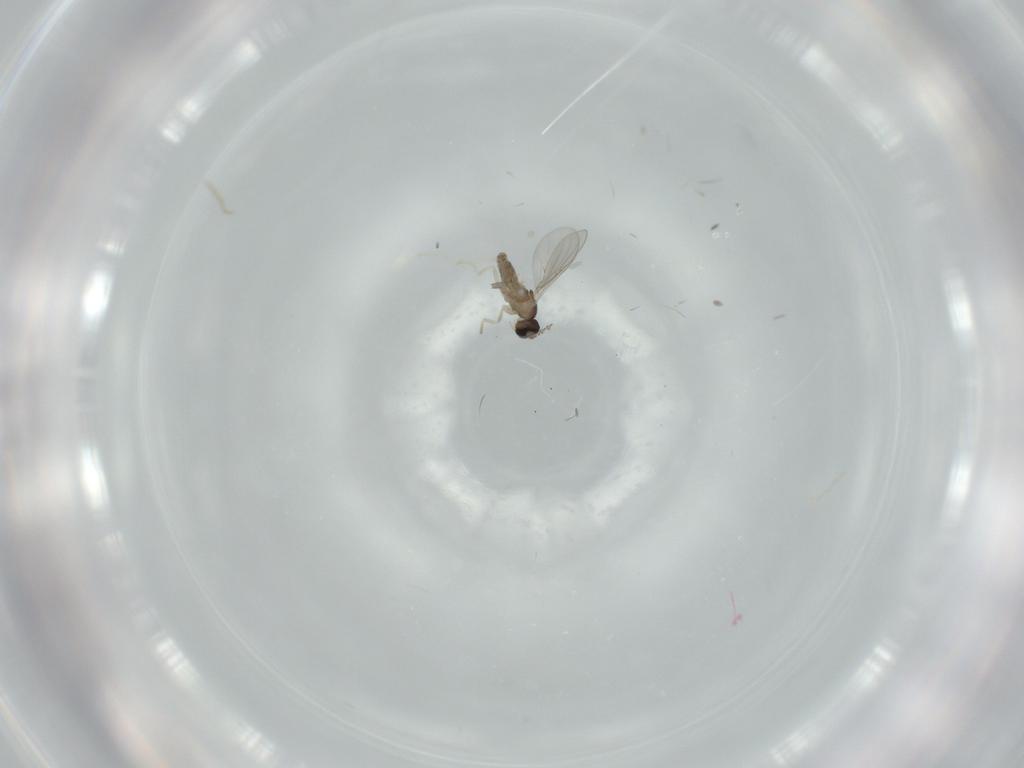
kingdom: Animalia
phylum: Arthropoda
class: Insecta
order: Diptera
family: Cecidomyiidae
